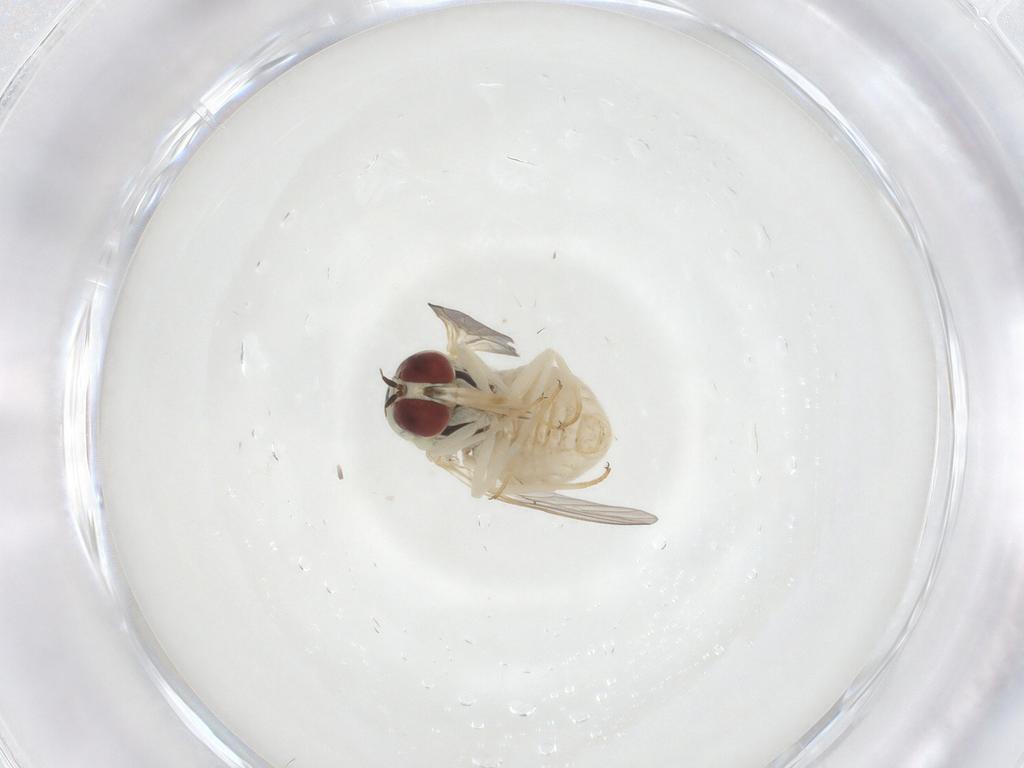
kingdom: Animalia
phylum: Arthropoda
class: Insecta
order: Diptera
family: Bombyliidae
